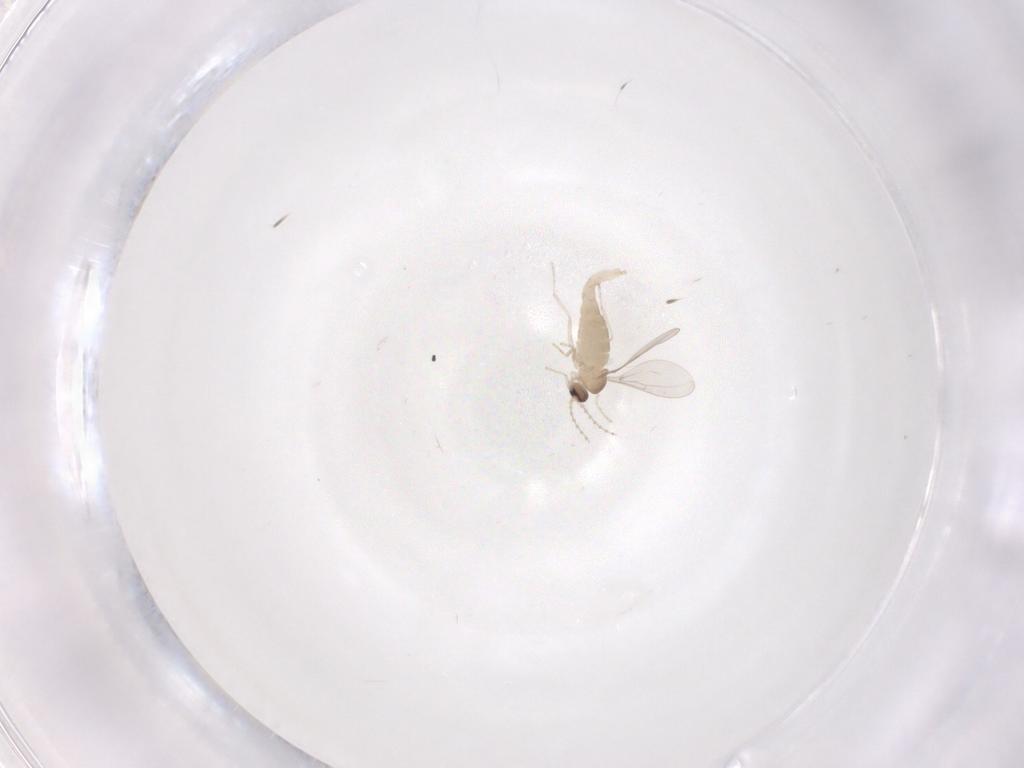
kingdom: Animalia
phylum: Arthropoda
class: Insecta
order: Diptera
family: Cecidomyiidae
